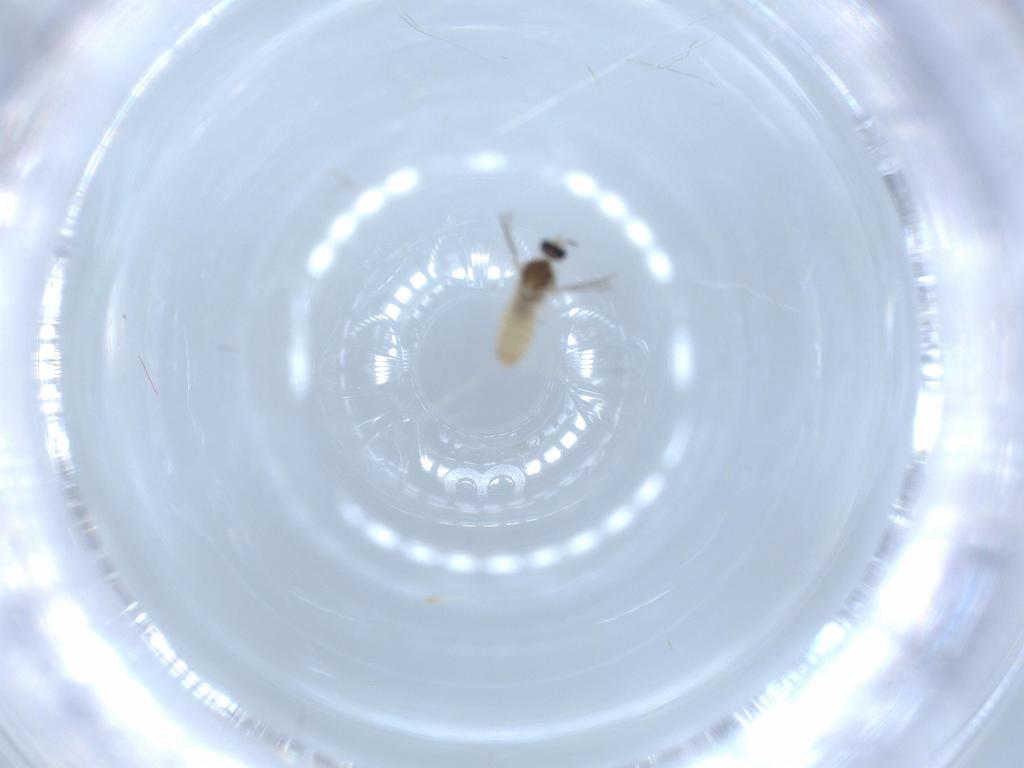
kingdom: Animalia
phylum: Arthropoda
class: Insecta
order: Diptera
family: Cecidomyiidae
